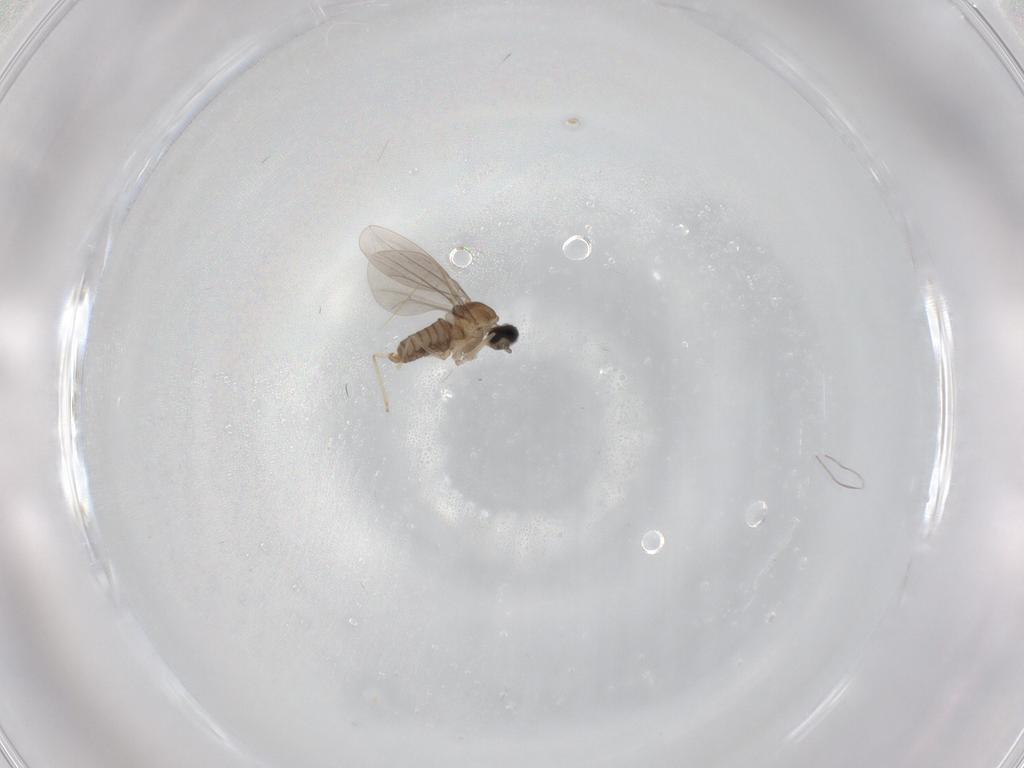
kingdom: Animalia
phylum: Arthropoda
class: Insecta
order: Diptera
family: Cecidomyiidae
